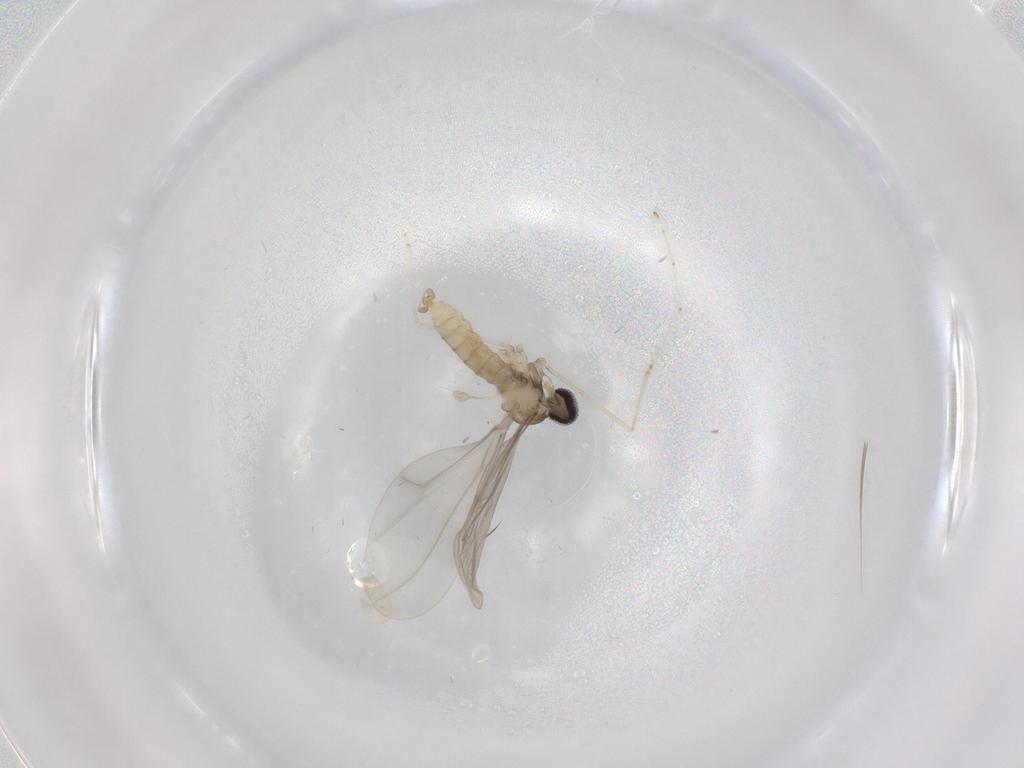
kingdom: Animalia
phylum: Arthropoda
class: Insecta
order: Diptera
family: Cecidomyiidae
